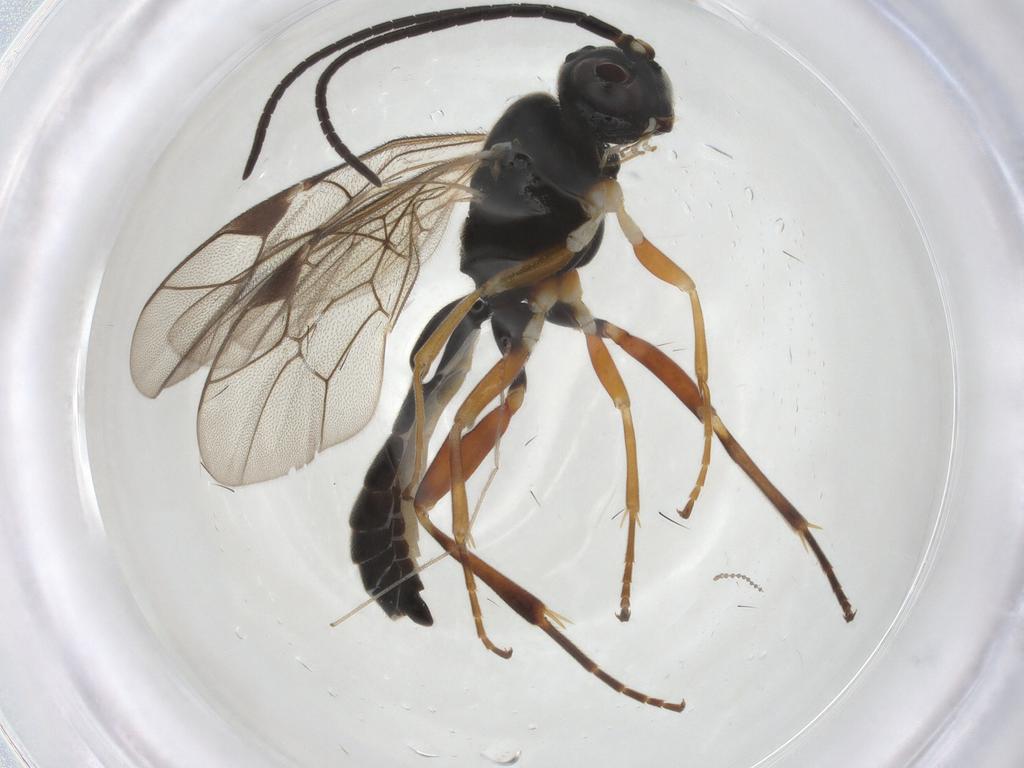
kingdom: Animalia
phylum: Arthropoda
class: Insecta
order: Hymenoptera
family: Ichneumonidae
